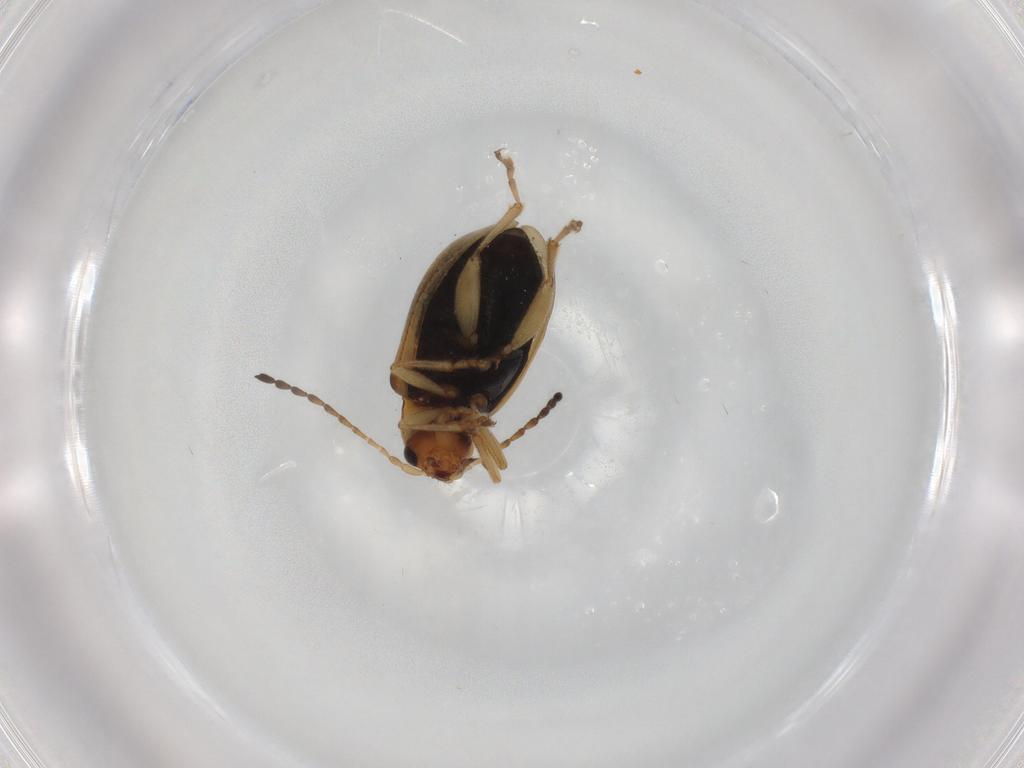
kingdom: Animalia
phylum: Arthropoda
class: Insecta
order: Coleoptera
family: Chrysomelidae
